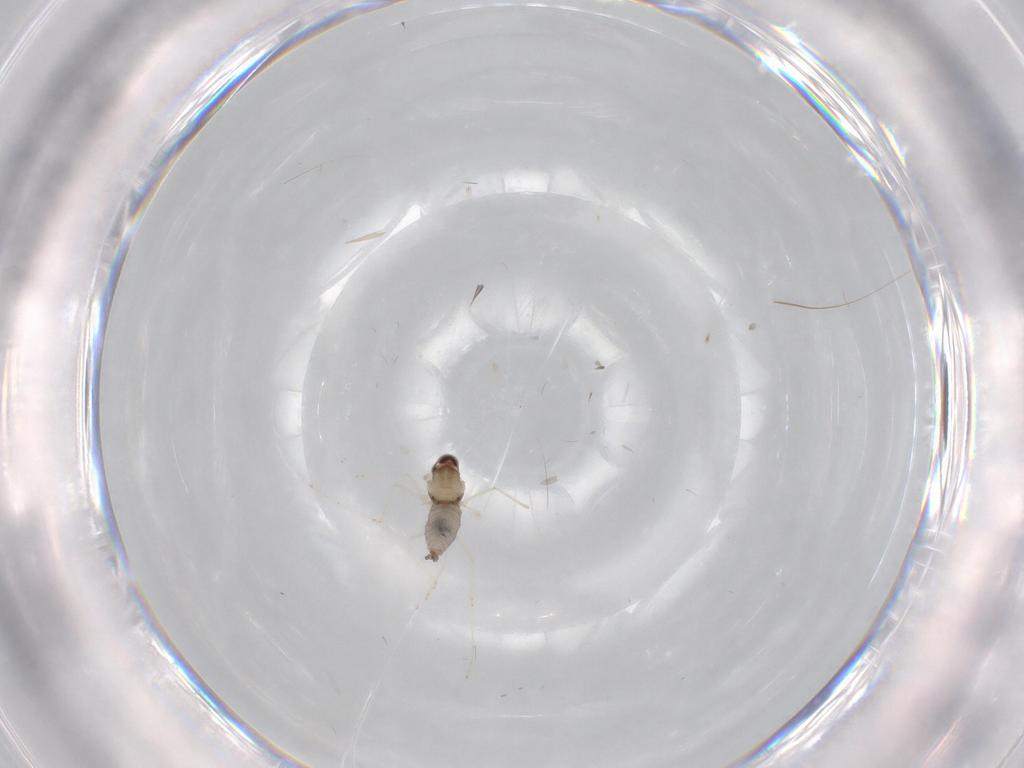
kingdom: Animalia
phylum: Arthropoda
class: Insecta
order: Diptera
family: Cecidomyiidae
